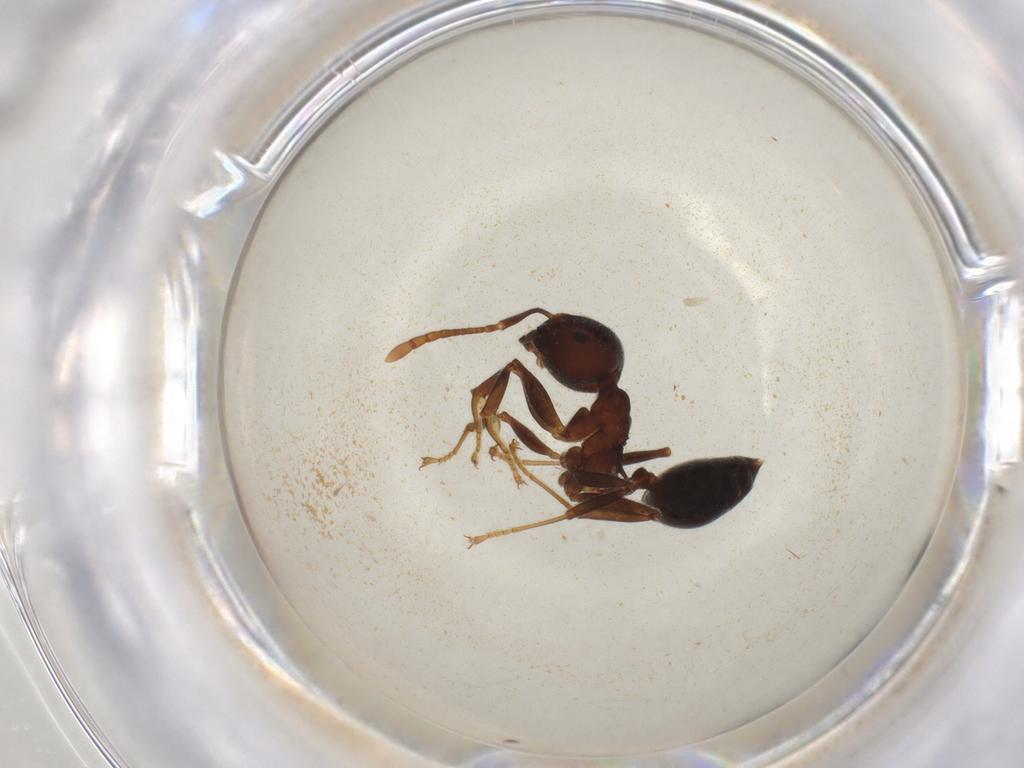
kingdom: Animalia
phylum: Arthropoda
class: Insecta
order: Hymenoptera
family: Formicidae
